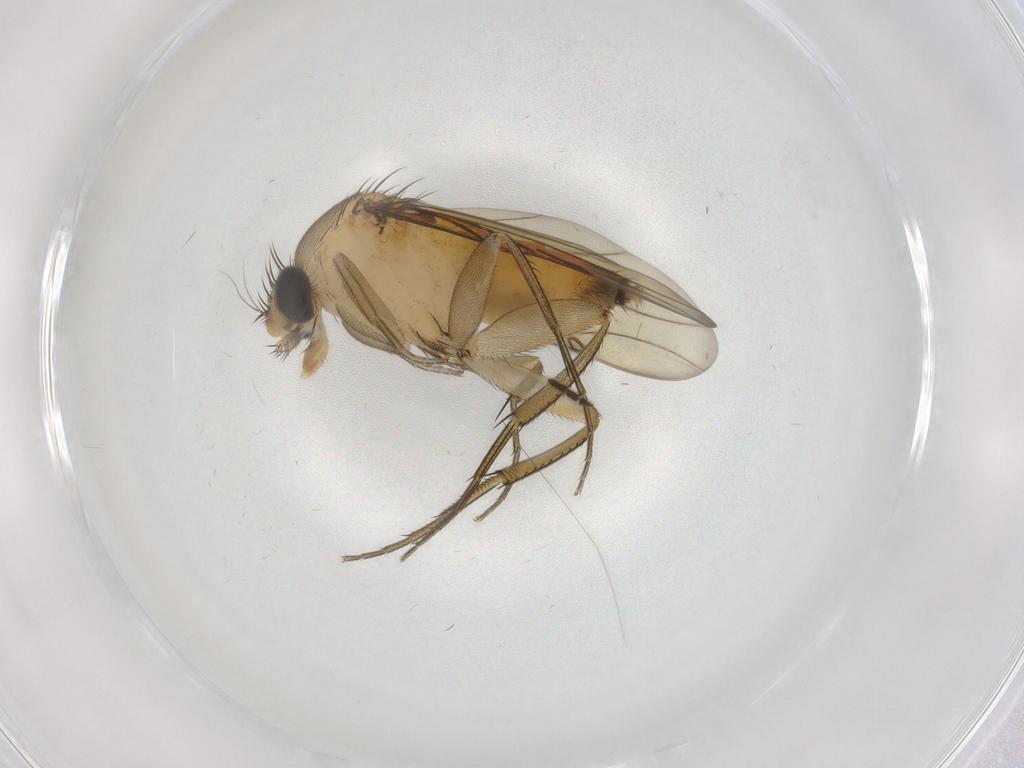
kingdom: Animalia
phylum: Arthropoda
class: Insecta
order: Diptera
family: Sciaridae
